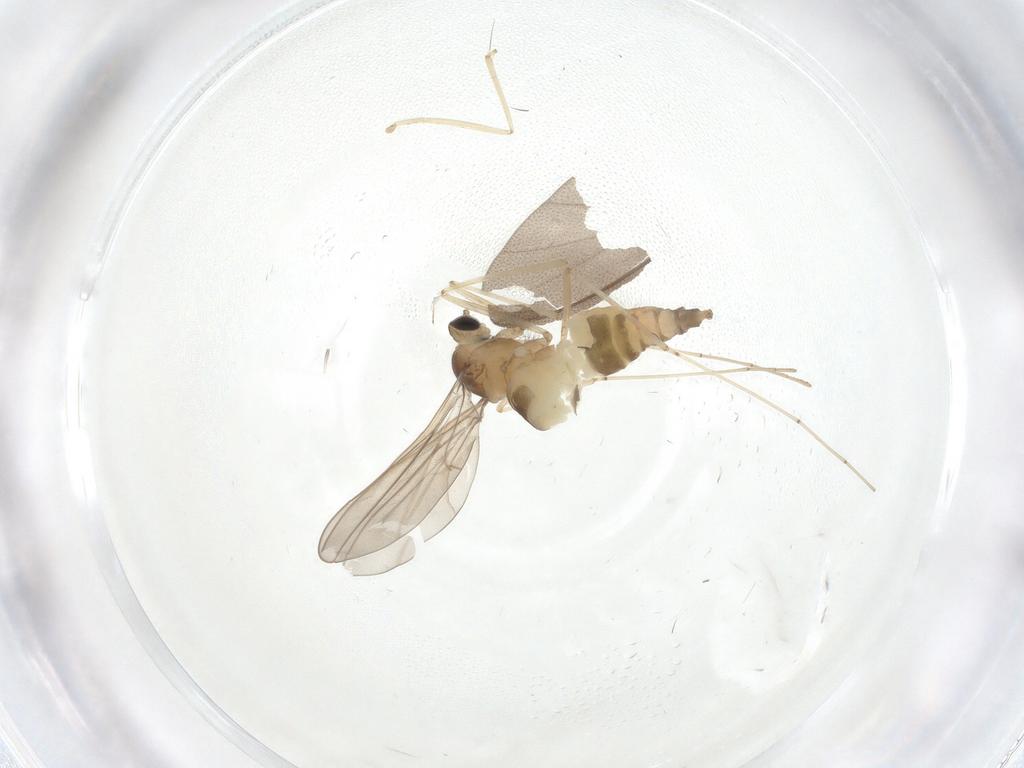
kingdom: Animalia
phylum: Arthropoda
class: Insecta
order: Diptera
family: Cecidomyiidae
